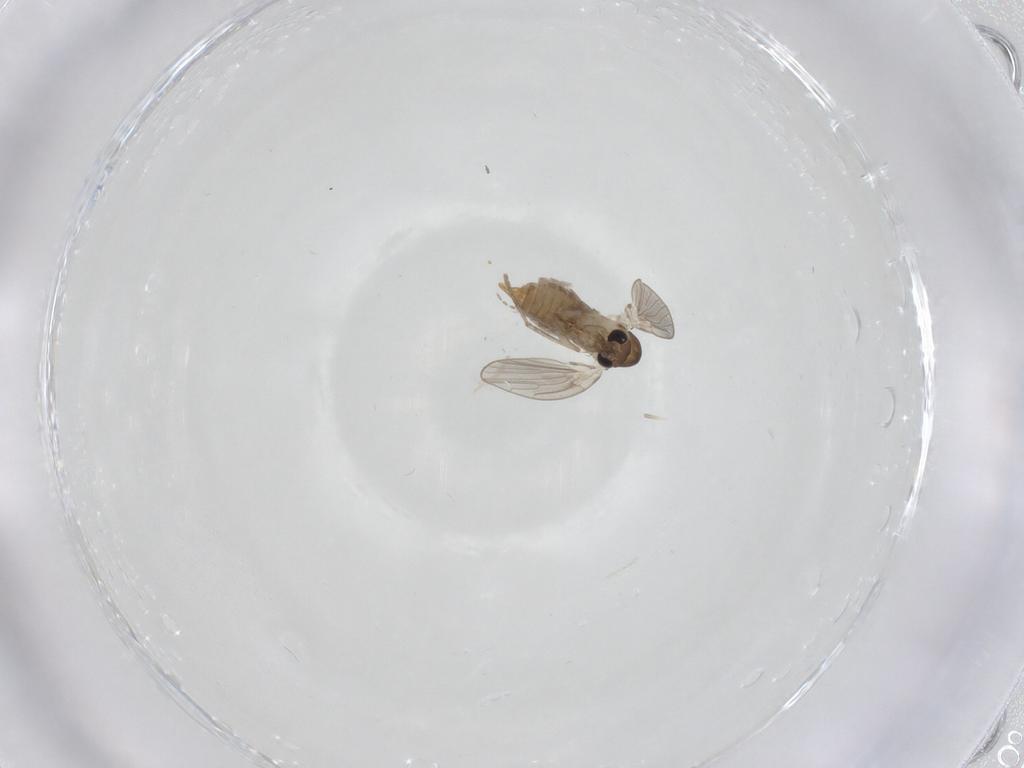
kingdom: Animalia
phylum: Arthropoda
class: Insecta
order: Diptera
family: Cecidomyiidae
